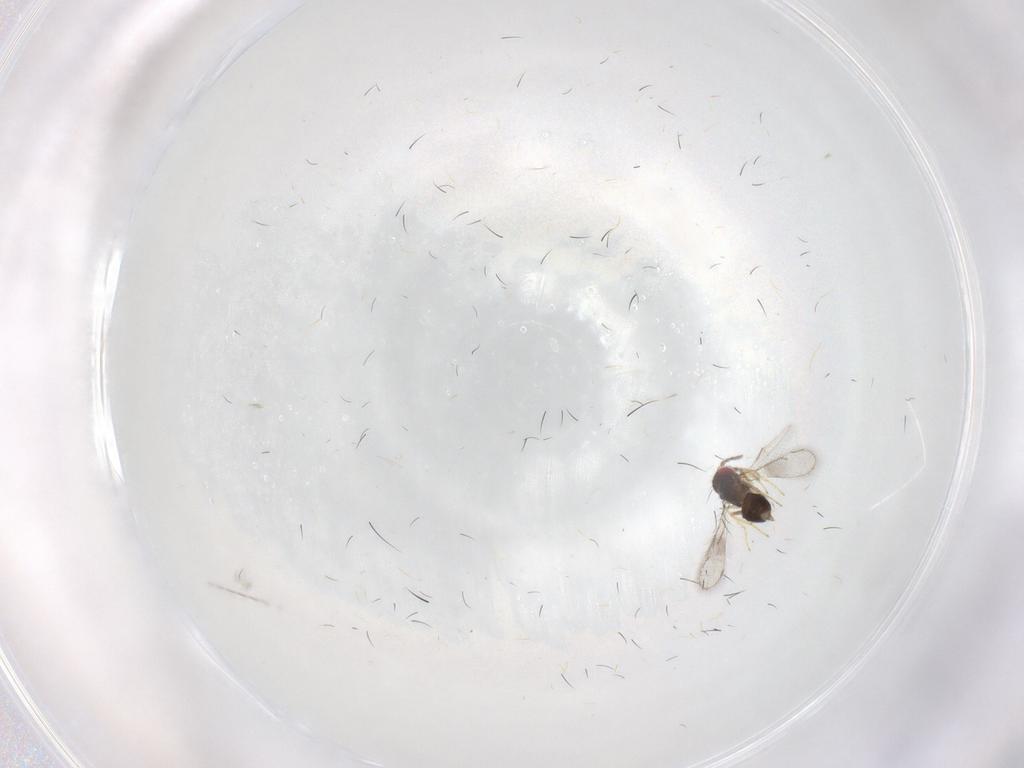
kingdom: Animalia
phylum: Arthropoda
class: Insecta
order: Hymenoptera
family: Eulophidae
